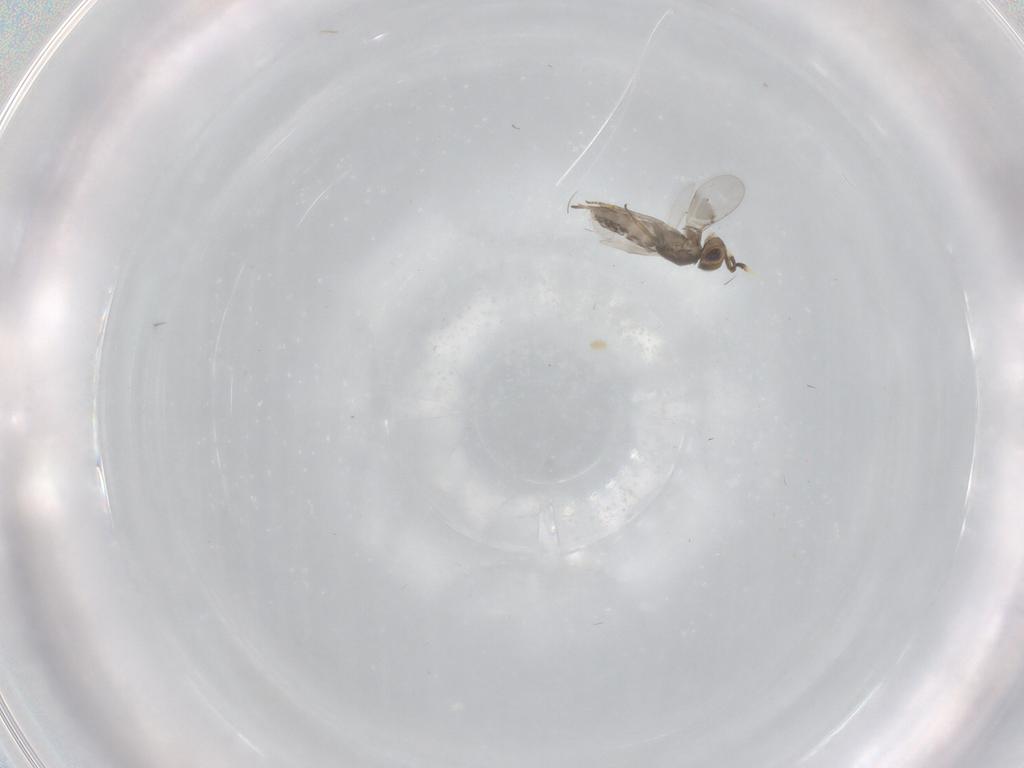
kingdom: Animalia
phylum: Arthropoda
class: Insecta
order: Hymenoptera
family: Encyrtidae
